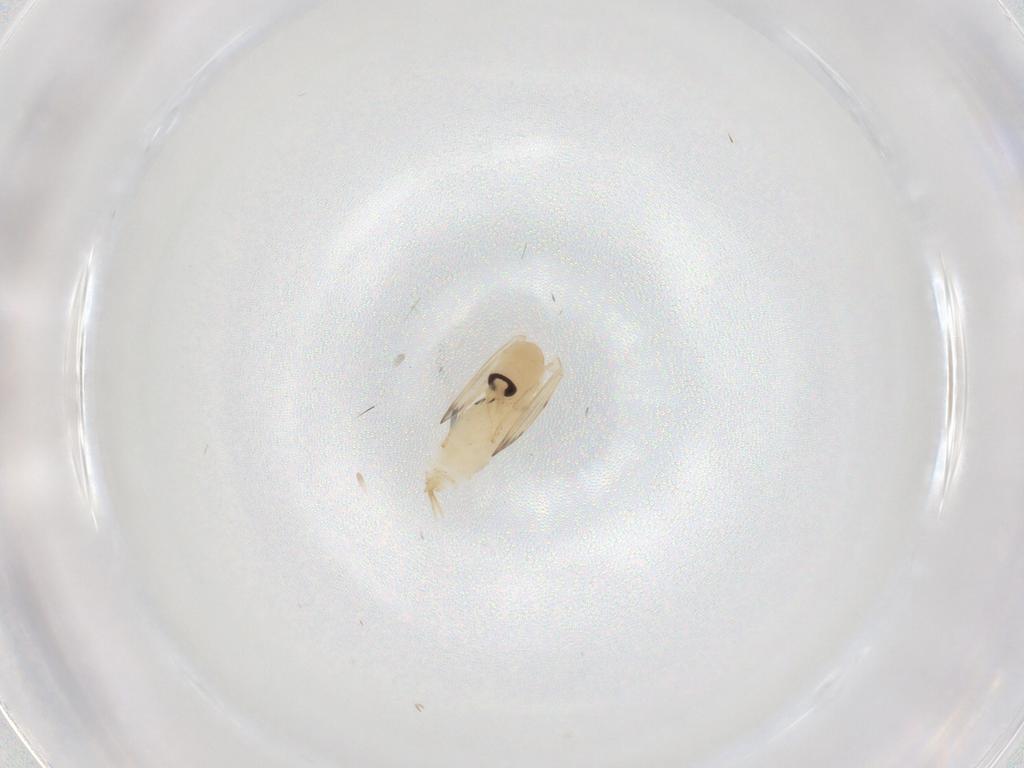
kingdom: Animalia
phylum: Arthropoda
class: Insecta
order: Diptera
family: Psychodidae
